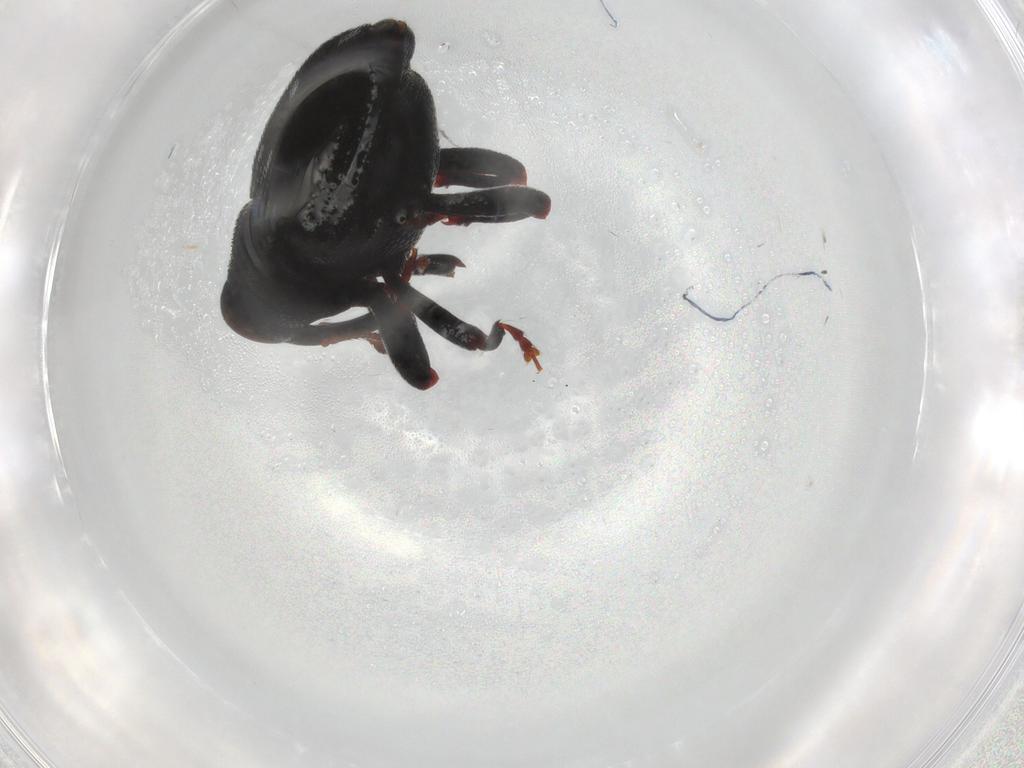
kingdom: Animalia
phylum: Arthropoda
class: Insecta
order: Coleoptera
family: Curculionidae
